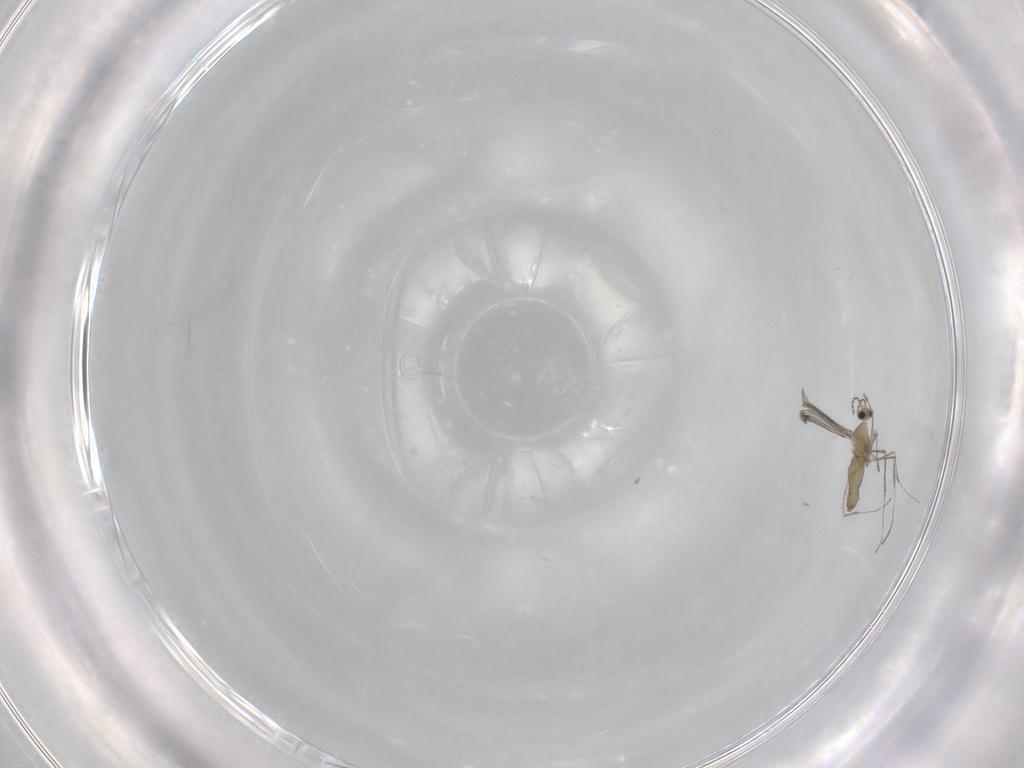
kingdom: Animalia
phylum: Arthropoda
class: Insecta
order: Diptera
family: Cecidomyiidae
